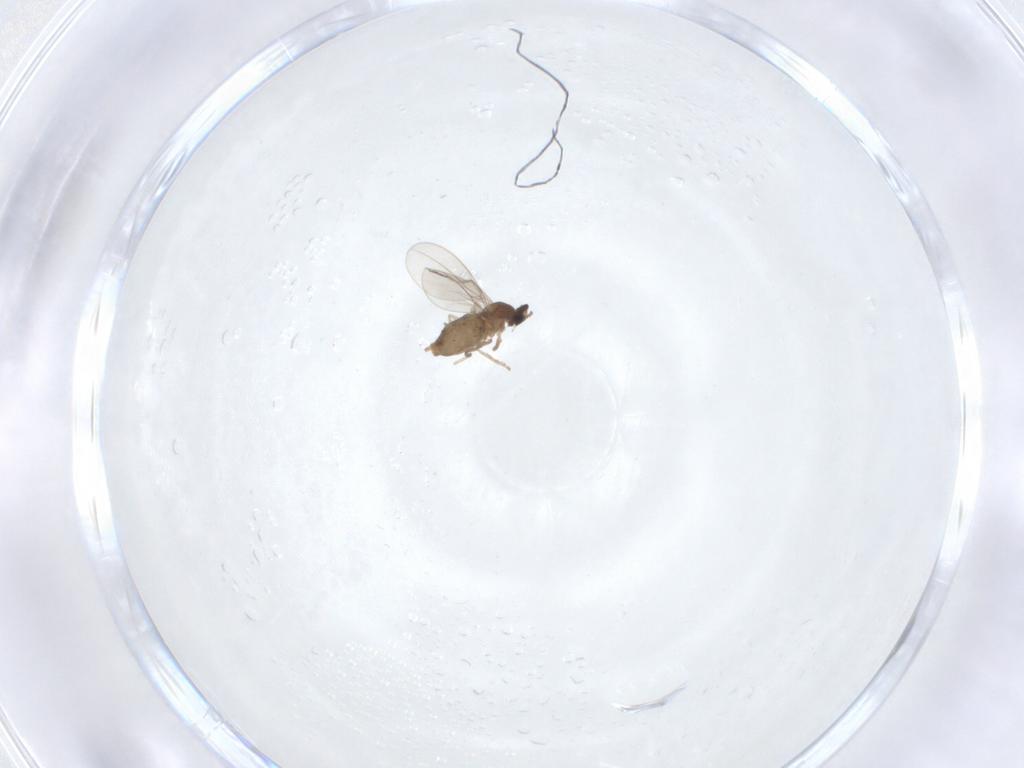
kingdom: Animalia
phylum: Arthropoda
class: Insecta
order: Diptera
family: Cecidomyiidae
